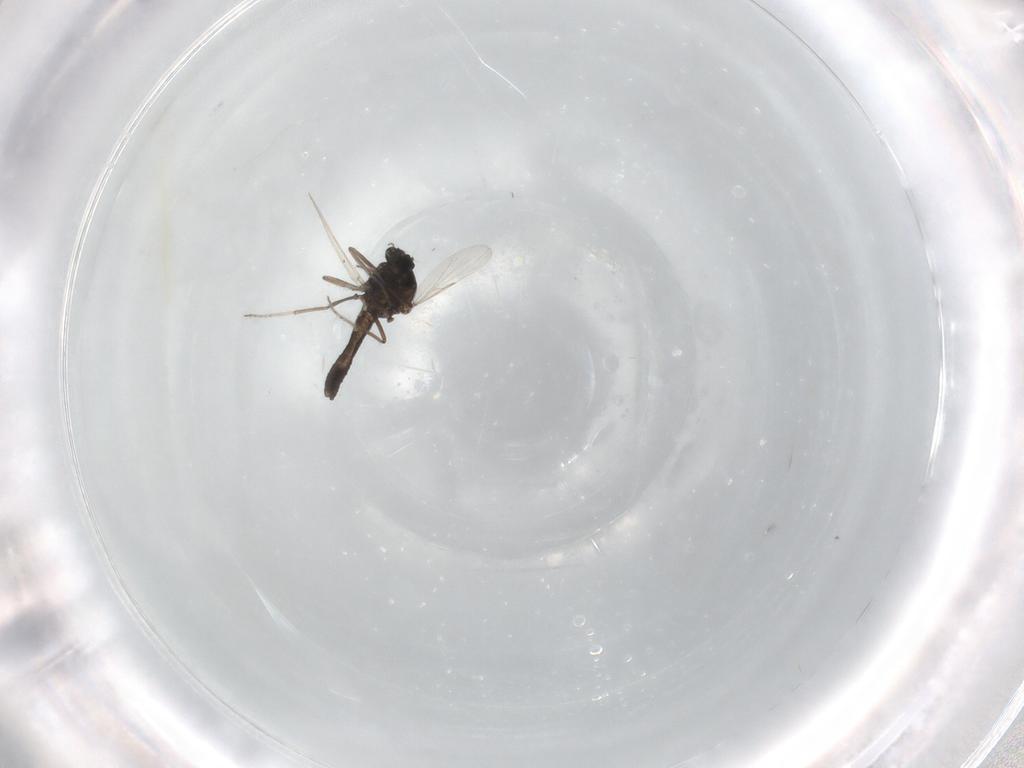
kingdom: Animalia
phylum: Arthropoda
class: Insecta
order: Diptera
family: Ceratopogonidae
